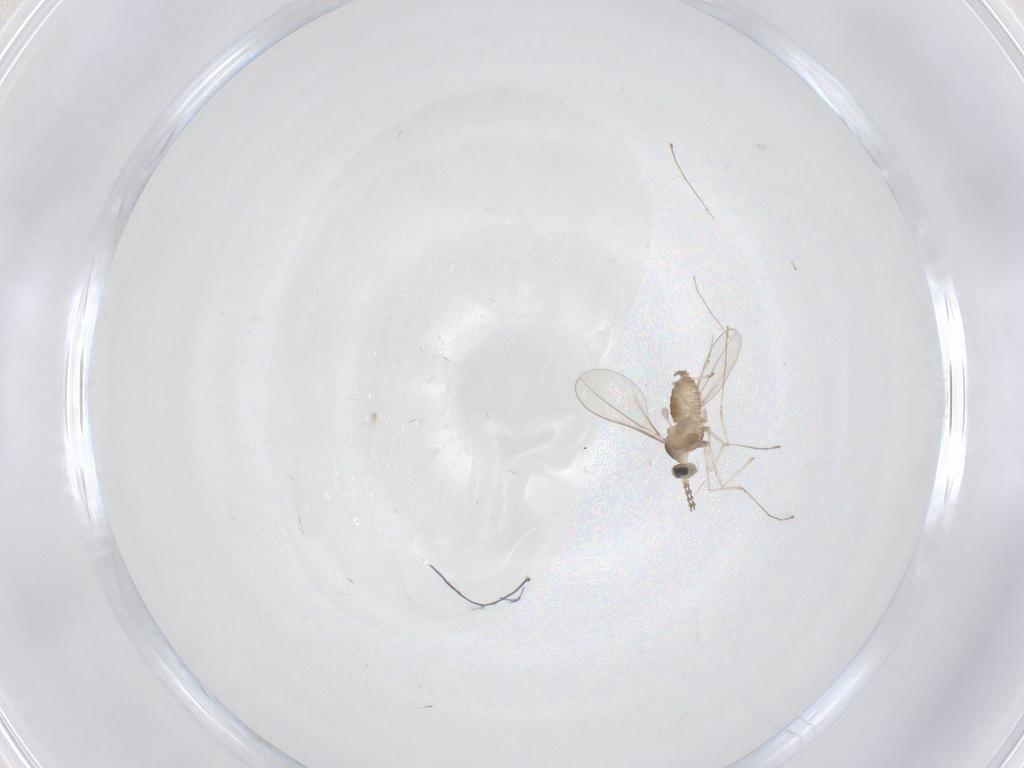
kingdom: Animalia
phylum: Arthropoda
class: Insecta
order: Diptera
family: Cecidomyiidae
